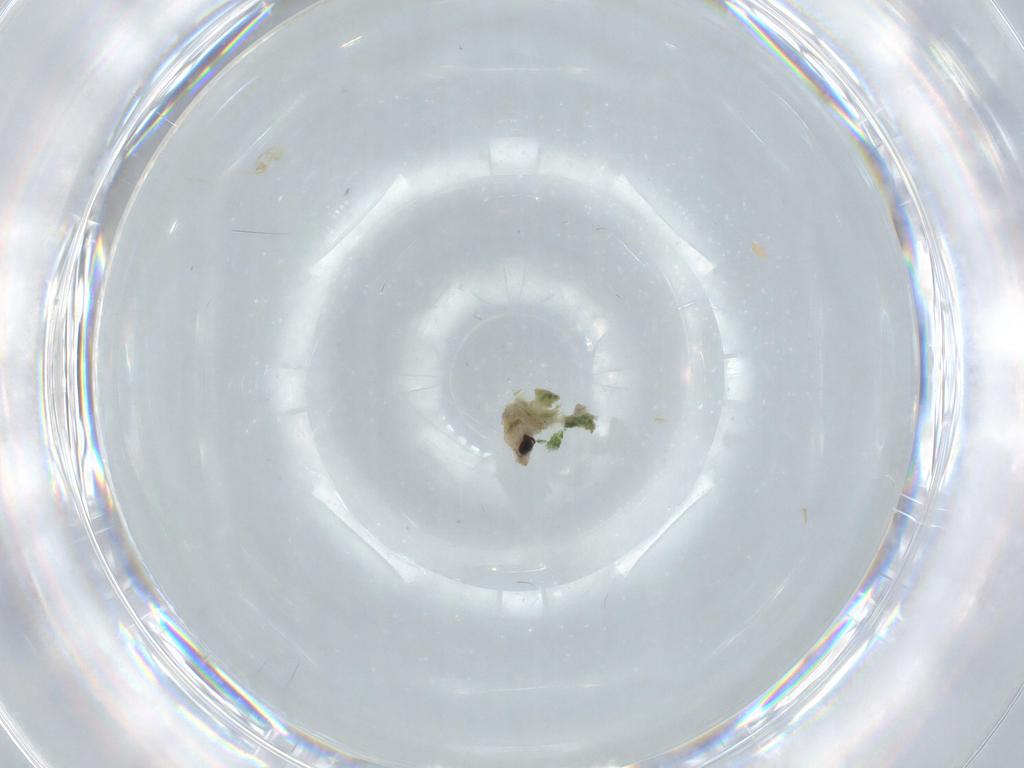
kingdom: Animalia
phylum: Arthropoda
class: Insecta
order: Diptera
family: Chironomidae
